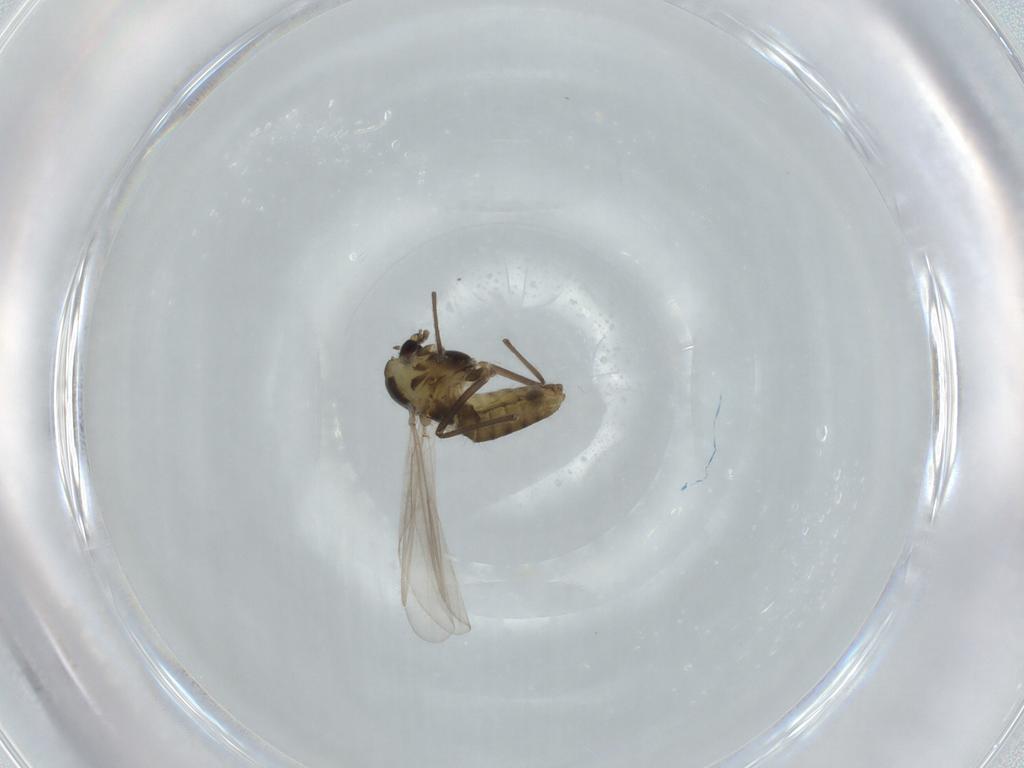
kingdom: Animalia
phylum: Arthropoda
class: Insecta
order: Diptera
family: Chironomidae
